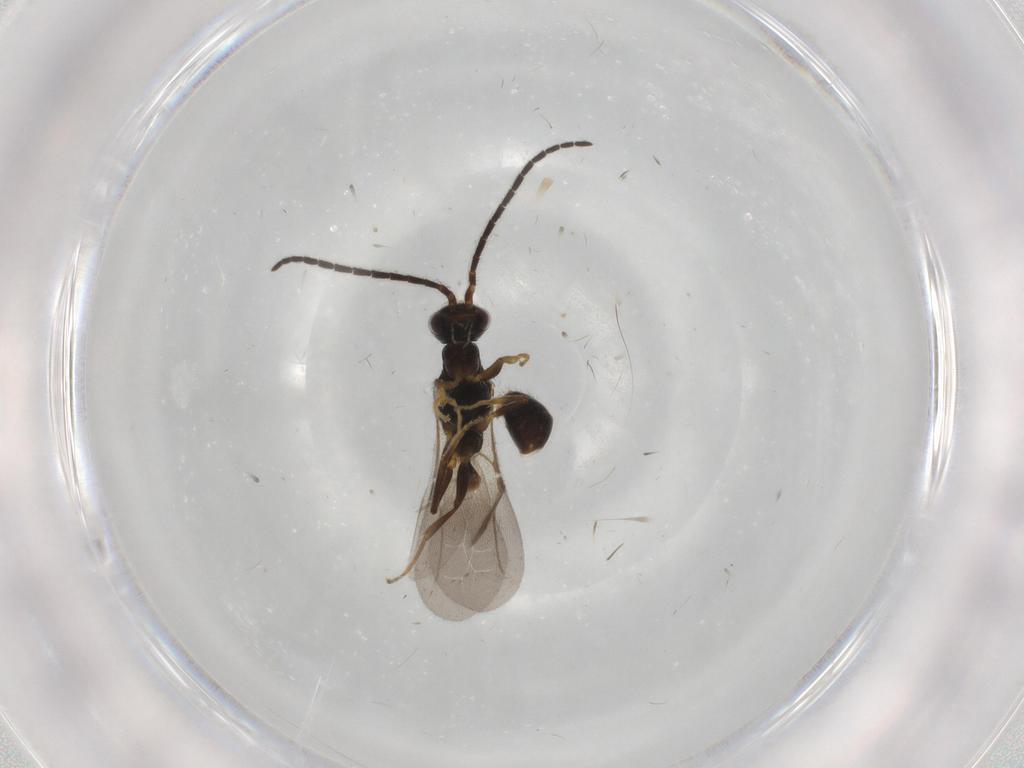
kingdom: Animalia
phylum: Arthropoda
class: Insecta
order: Hymenoptera
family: Bethylidae
